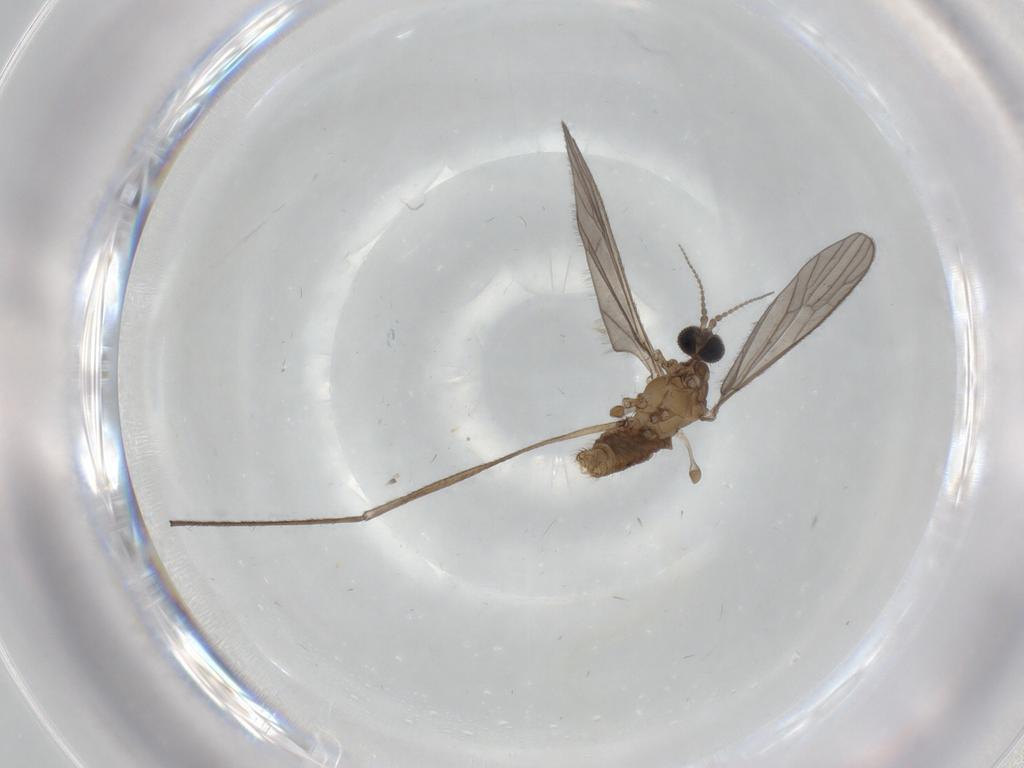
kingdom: Animalia
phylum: Arthropoda
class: Insecta
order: Diptera
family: Limoniidae
